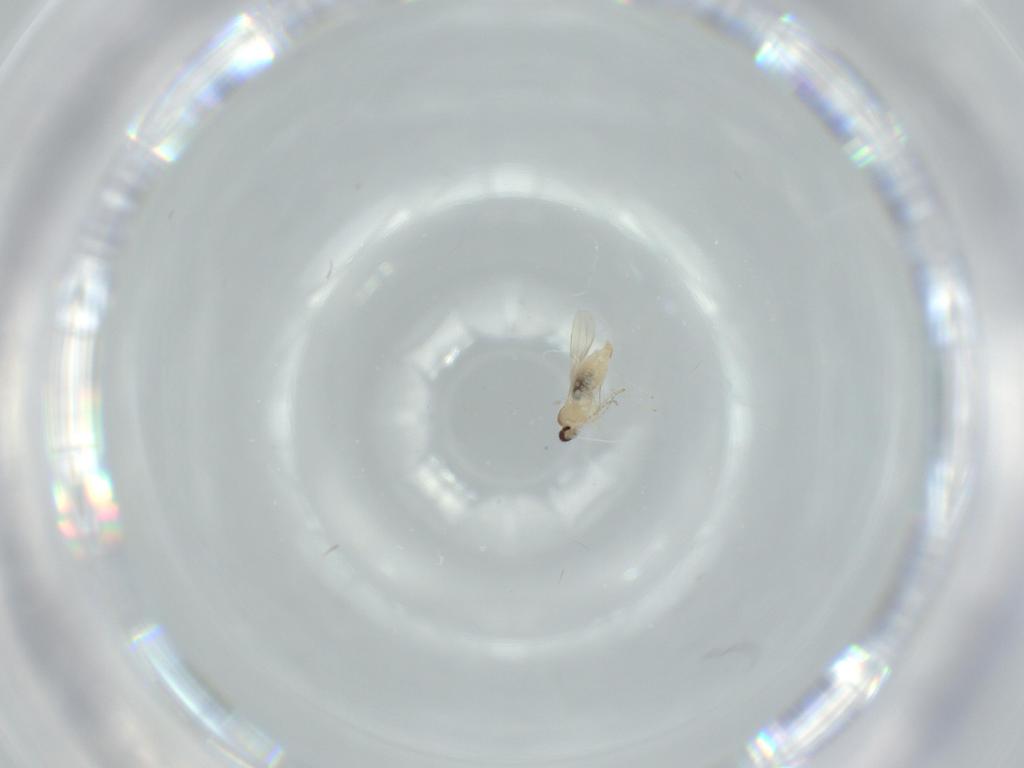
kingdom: Animalia
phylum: Arthropoda
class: Insecta
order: Diptera
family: Cecidomyiidae
